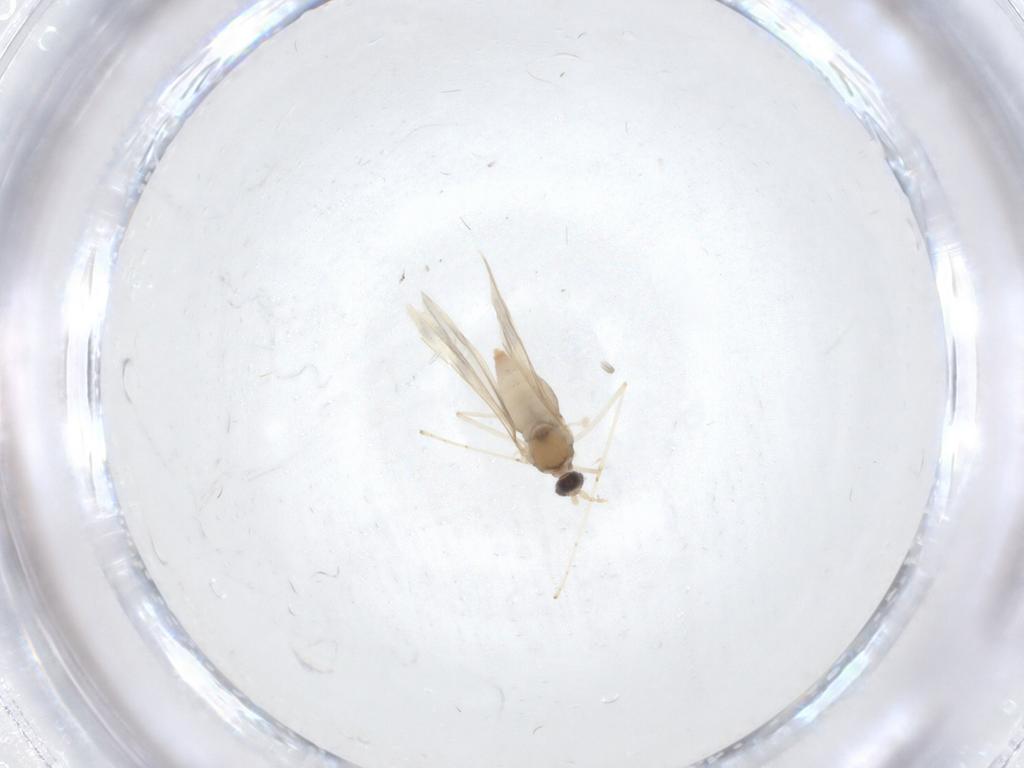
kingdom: Animalia
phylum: Arthropoda
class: Insecta
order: Diptera
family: Cecidomyiidae
